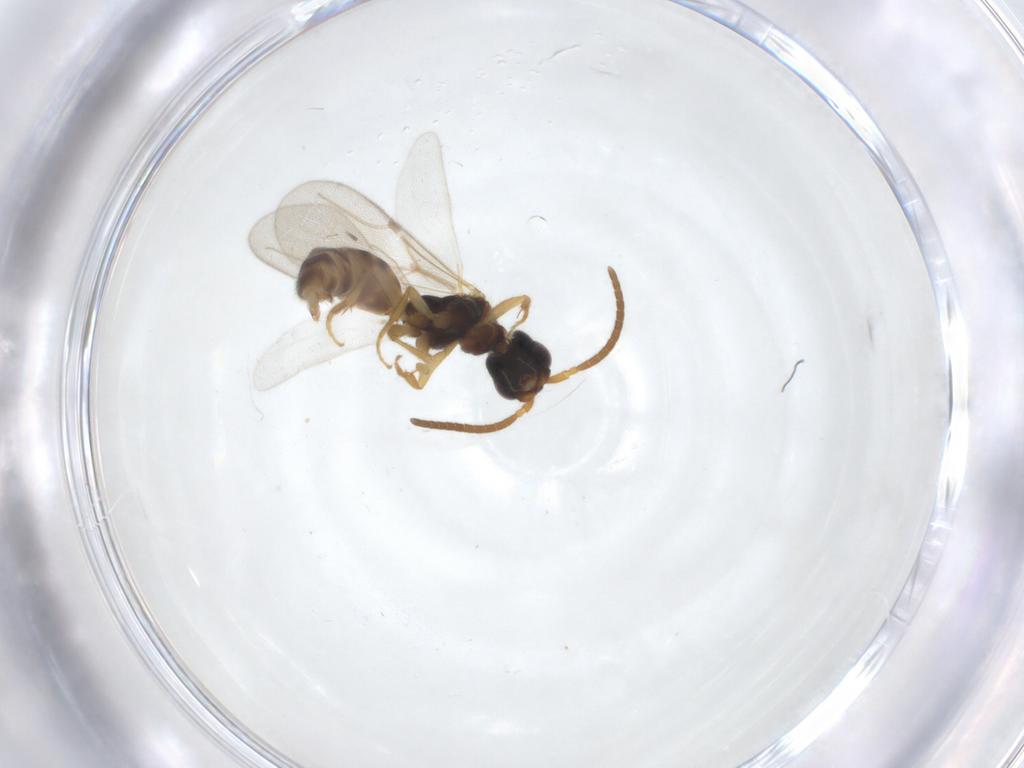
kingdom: Animalia
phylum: Arthropoda
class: Insecta
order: Hymenoptera
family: Bethylidae
